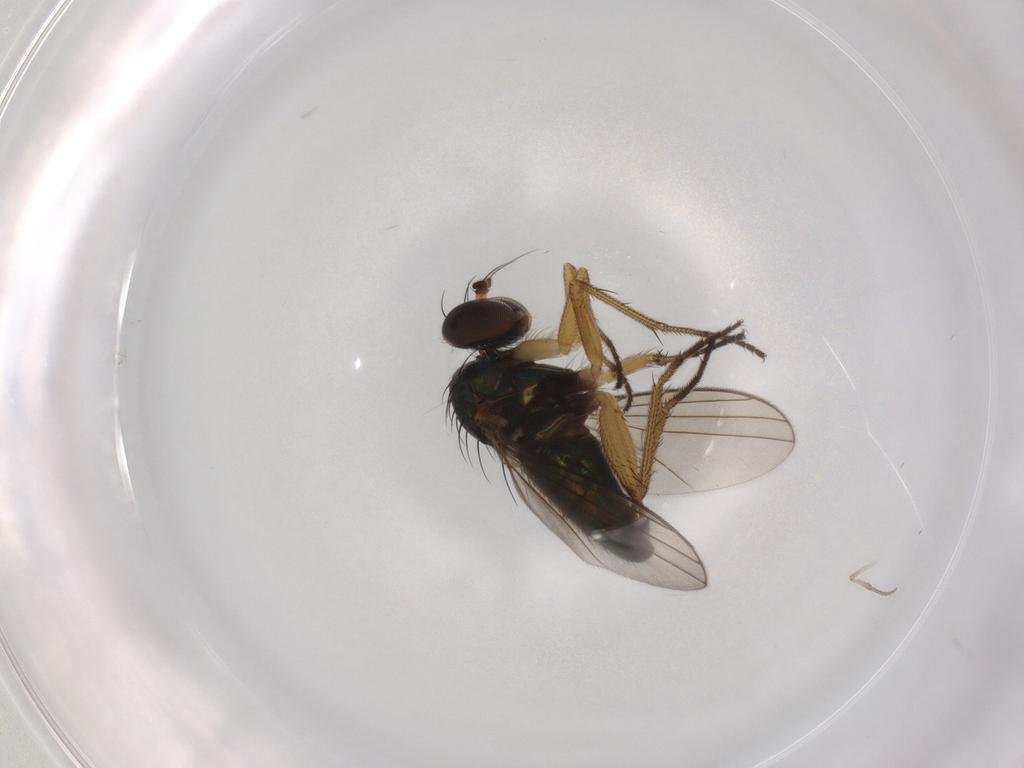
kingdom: Animalia
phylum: Arthropoda
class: Insecta
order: Diptera
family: Dolichopodidae
